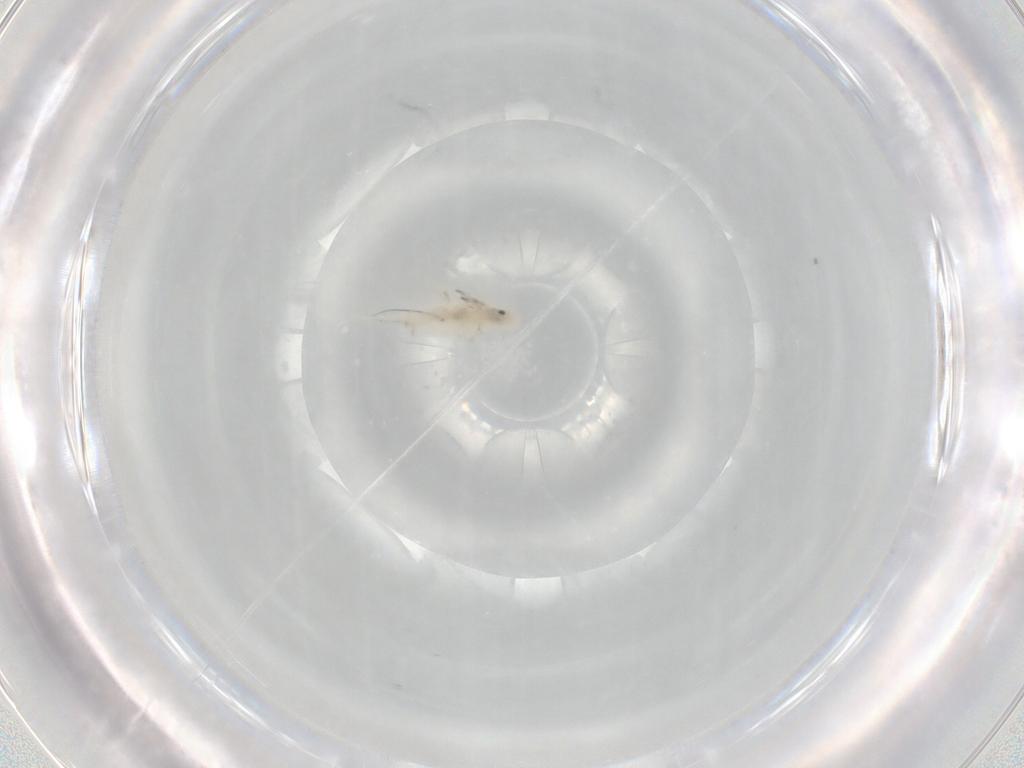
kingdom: Animalia
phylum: Arthropoda
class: Collembola
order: Entomobryomorpha
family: Entomobryidae
